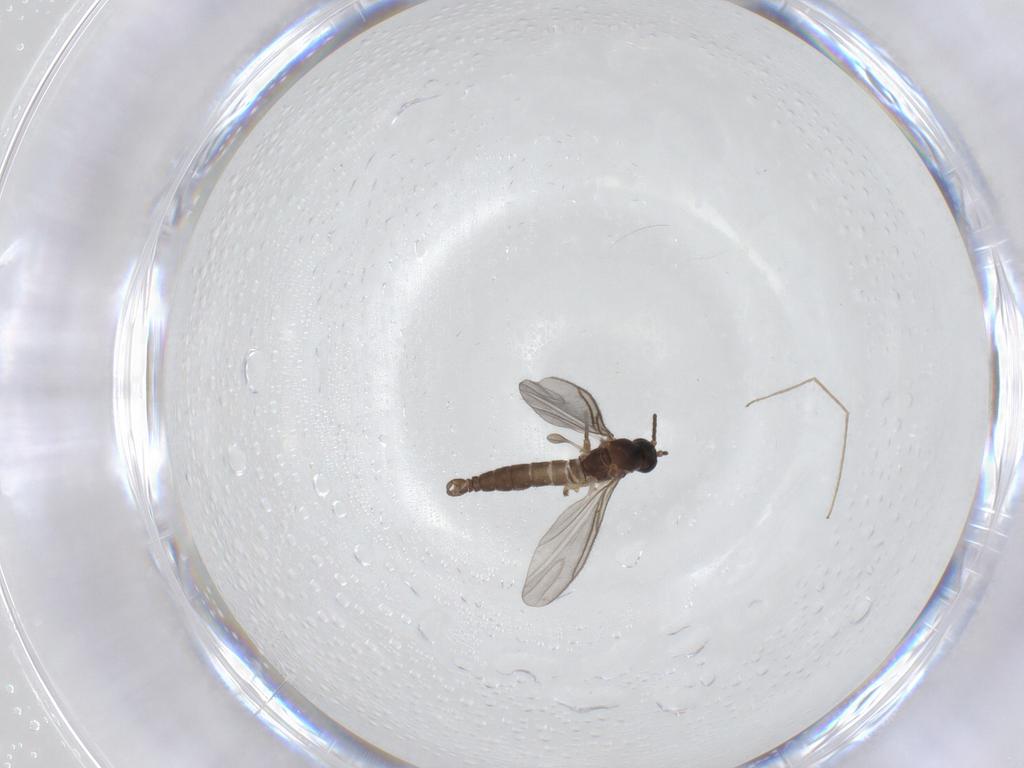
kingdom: Animalia
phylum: Arthropoda
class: Insecta
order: Diptera
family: Sciaridae
